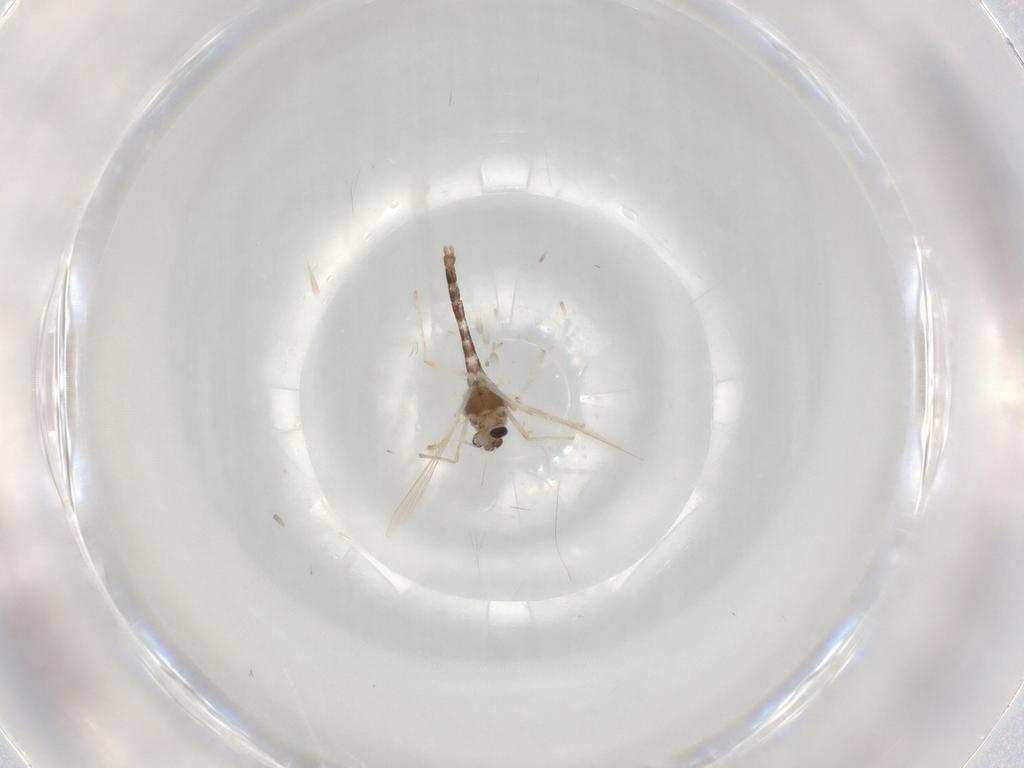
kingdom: Animalia
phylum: Arthropoda
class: Insecta
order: Diptera
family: Chironomidae
